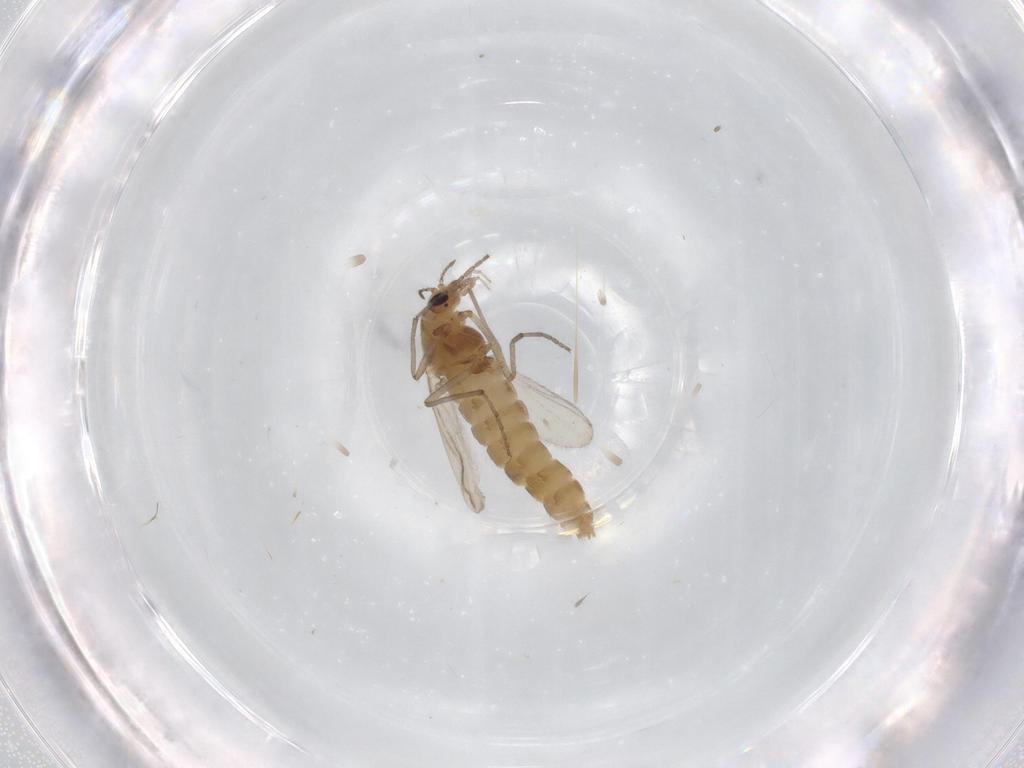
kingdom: Animalia
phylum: Arthropoda
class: Insecta
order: Diptera
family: Chironomidae
